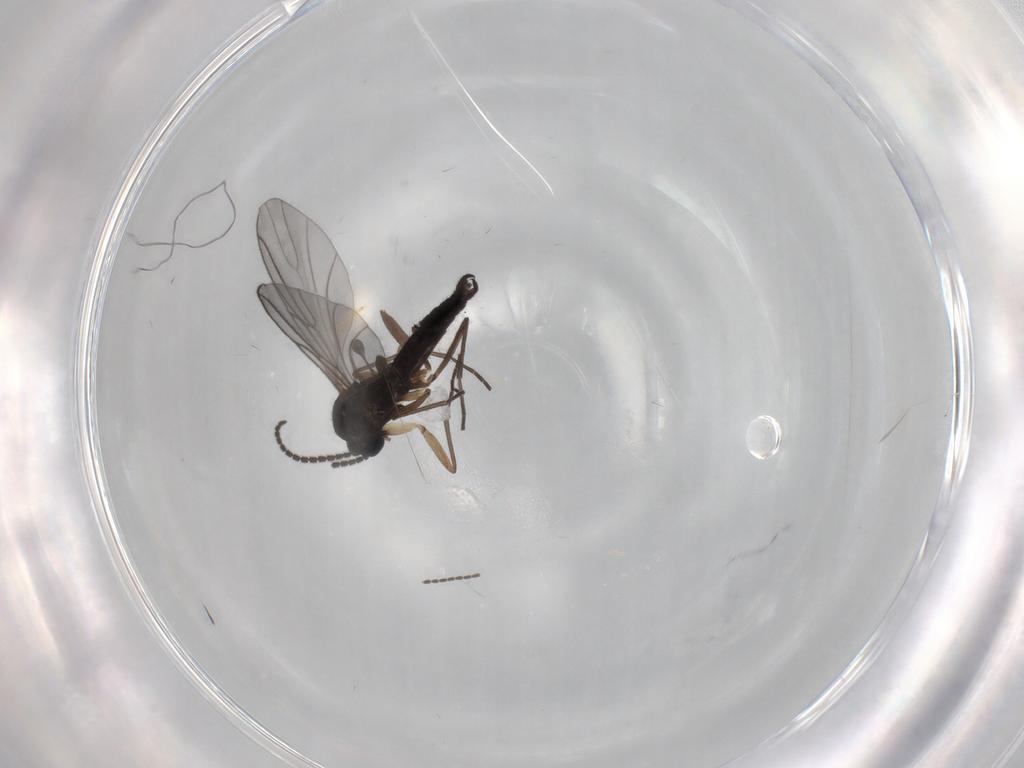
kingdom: Animalia
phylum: Arthropoda
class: Insecta
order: Diptera
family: Sciaridae
